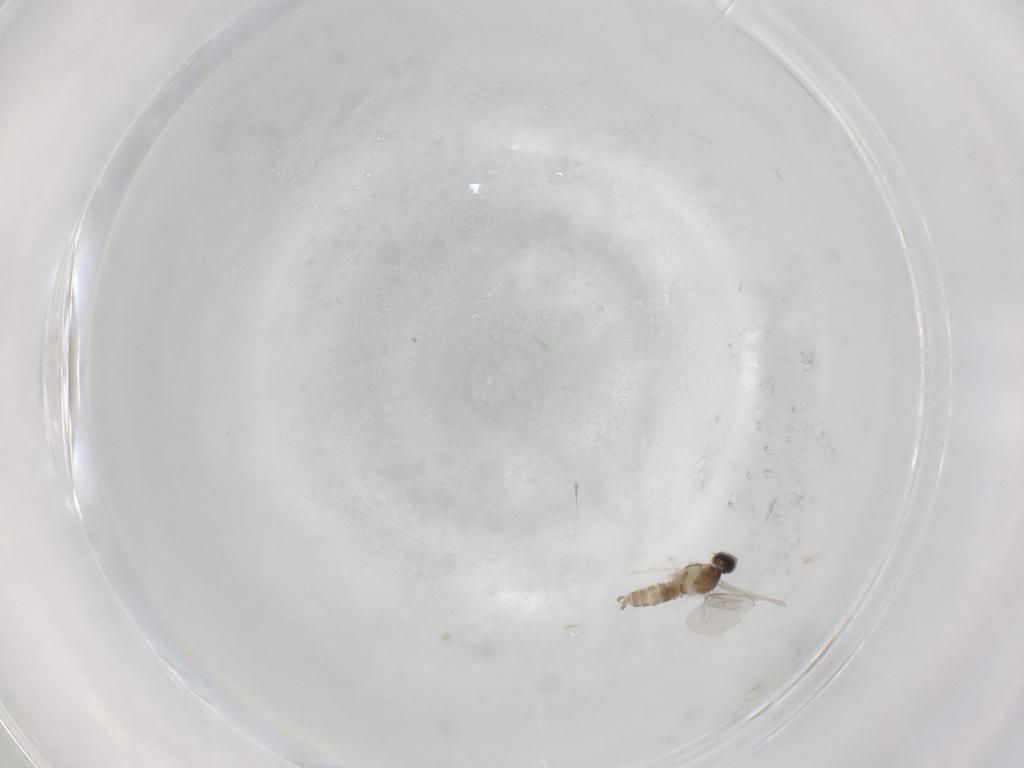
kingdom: Animalia
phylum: Arthropoda
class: Insecta
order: Diptera
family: Cecidomyiidae
